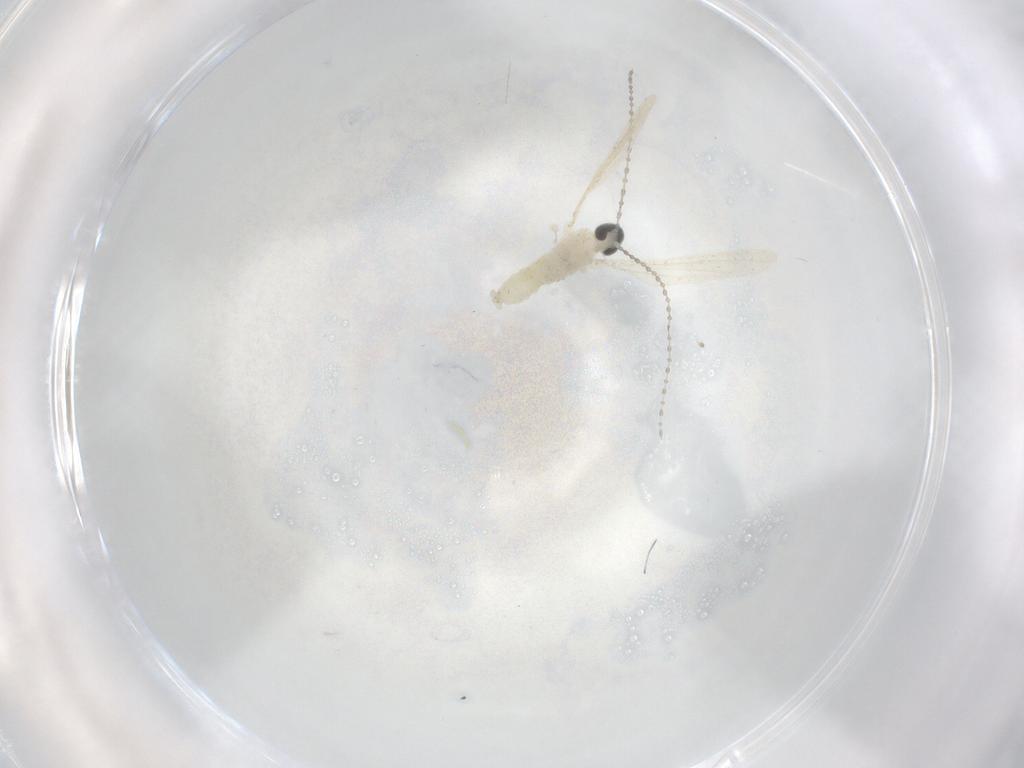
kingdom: Animalia
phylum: Arthropoda
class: Insecta
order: Diptera
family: Cecidomyiidae
